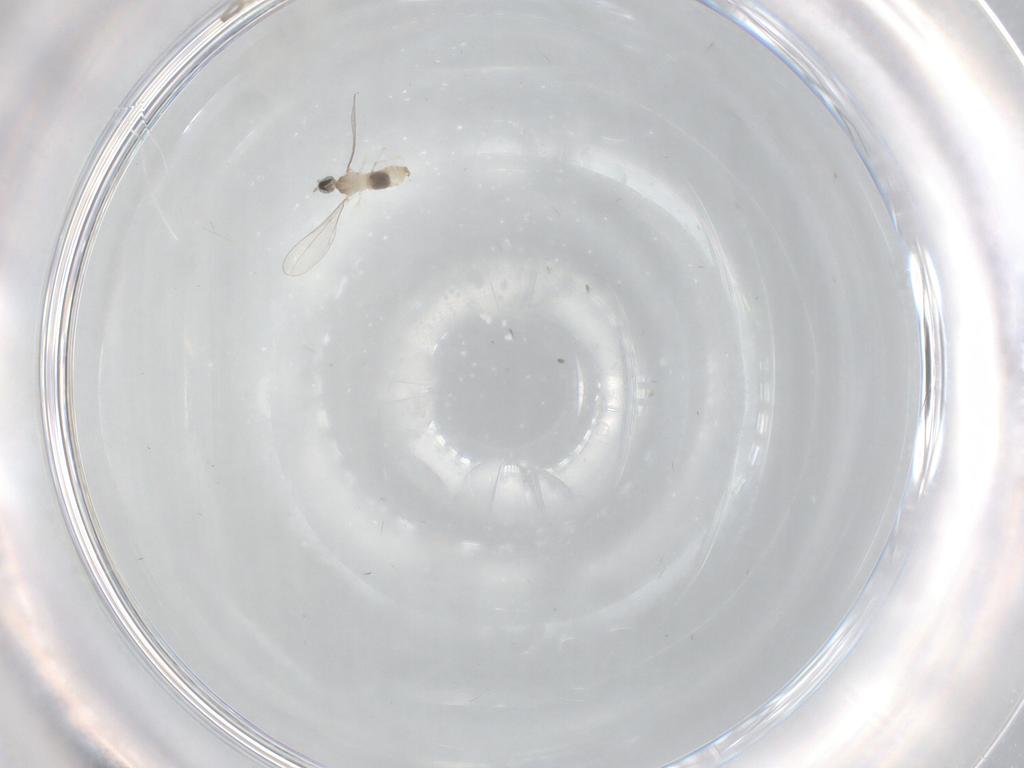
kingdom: Animalia
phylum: Arthropoda
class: Insecta
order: Diptera
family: Cecidomyiidae
